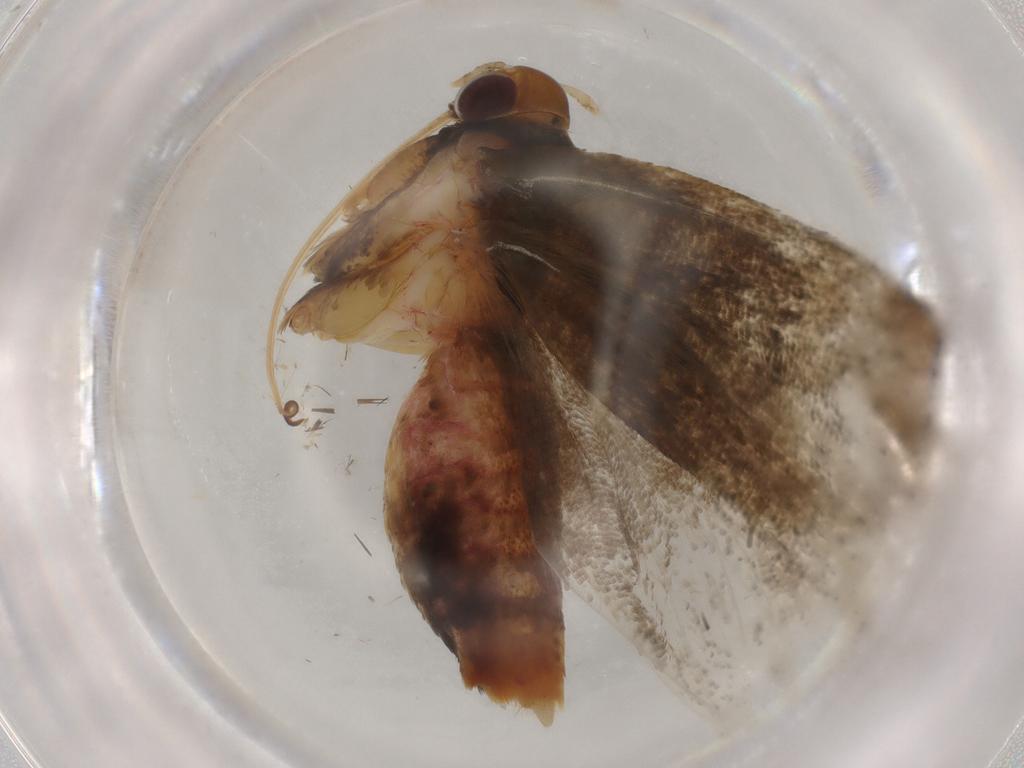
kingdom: Animalia
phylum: Arthropoda
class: Insecta
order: Lepidoptera
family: Lecithoceridae
